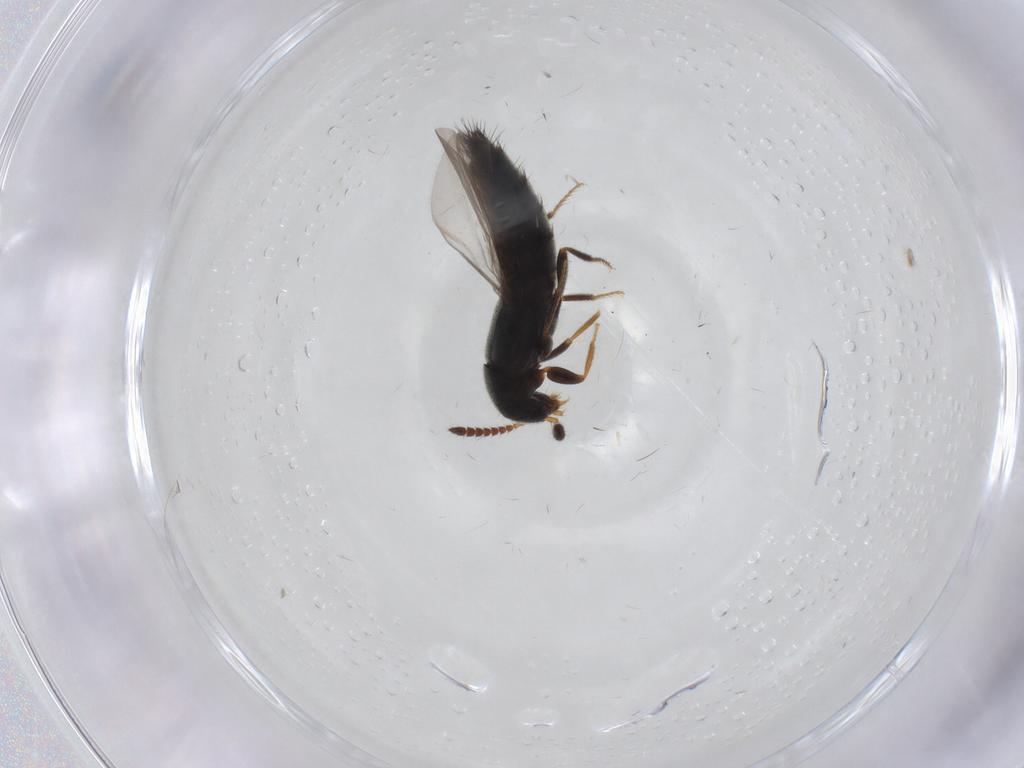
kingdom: Animalia
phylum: Arthropoda
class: Insecta
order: Coleoptera
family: Staphylinidae
